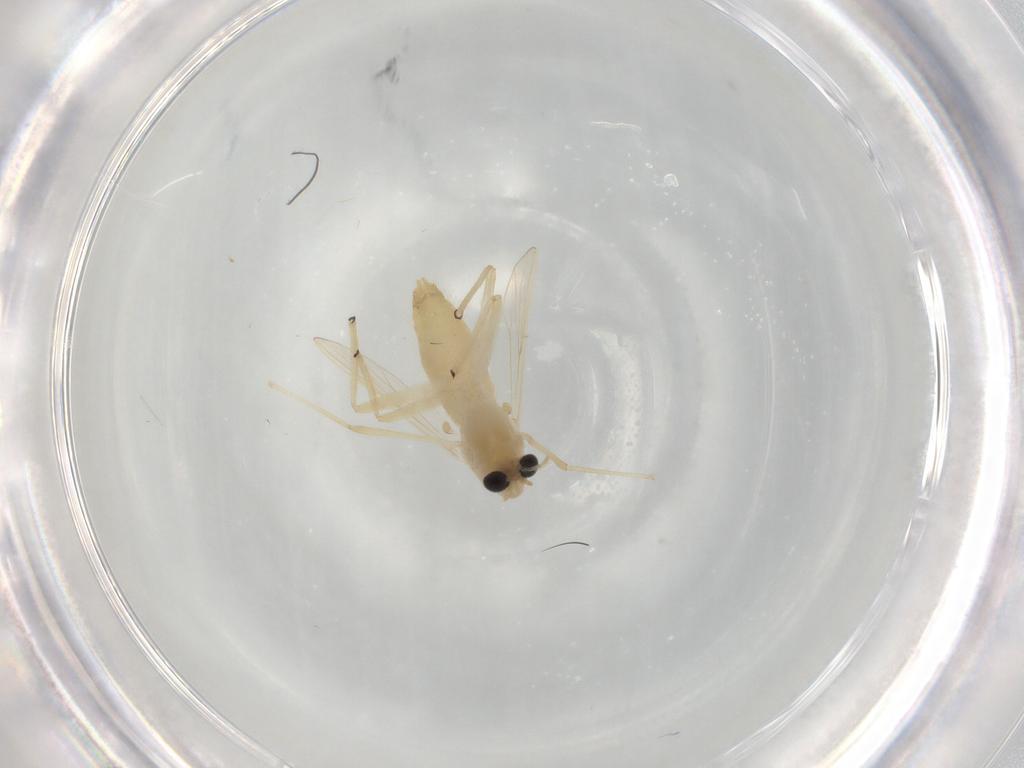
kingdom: Animalia
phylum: Arthropoda
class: Insecta
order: Diptera
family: Chironomidae
